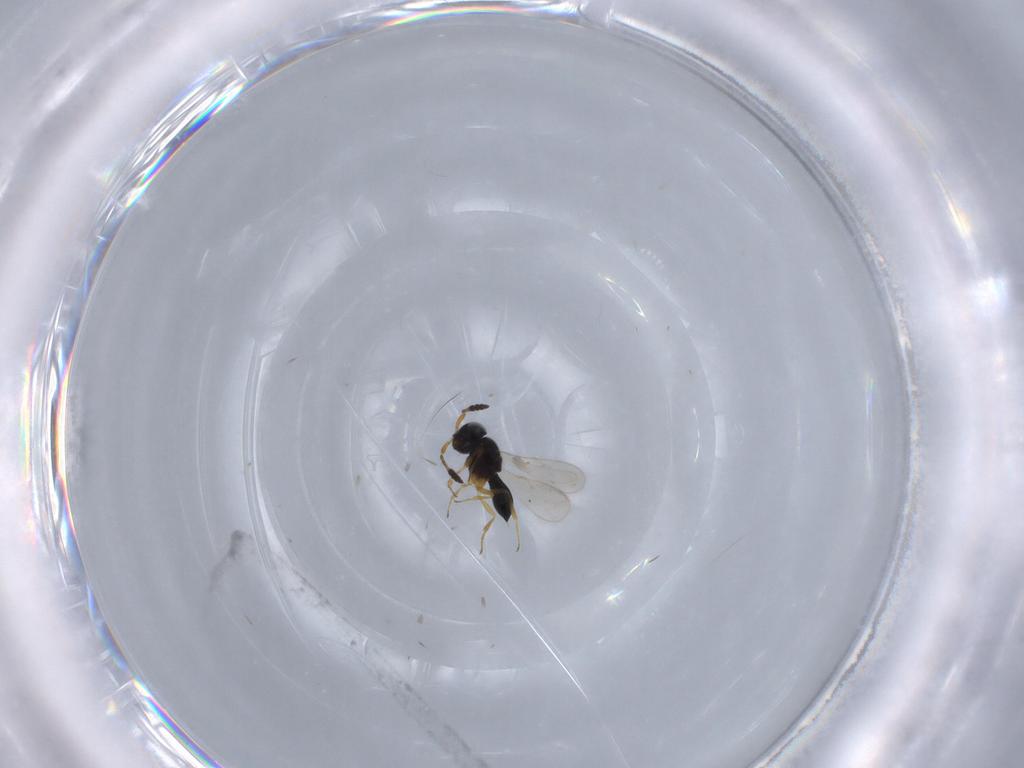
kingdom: Animalia
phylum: Arthropoda
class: Insecta
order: Hymenoptera
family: Scelionidae
